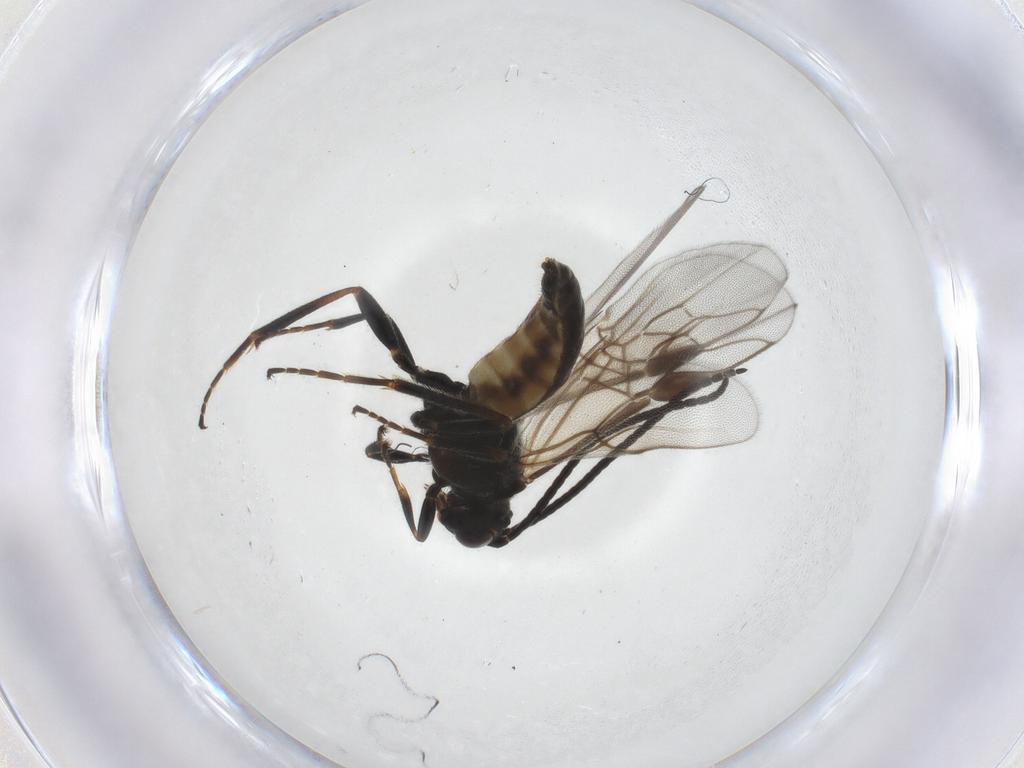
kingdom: Animalia
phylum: Arthropoda
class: Insecta
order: Hymenoptera
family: Braconidae
